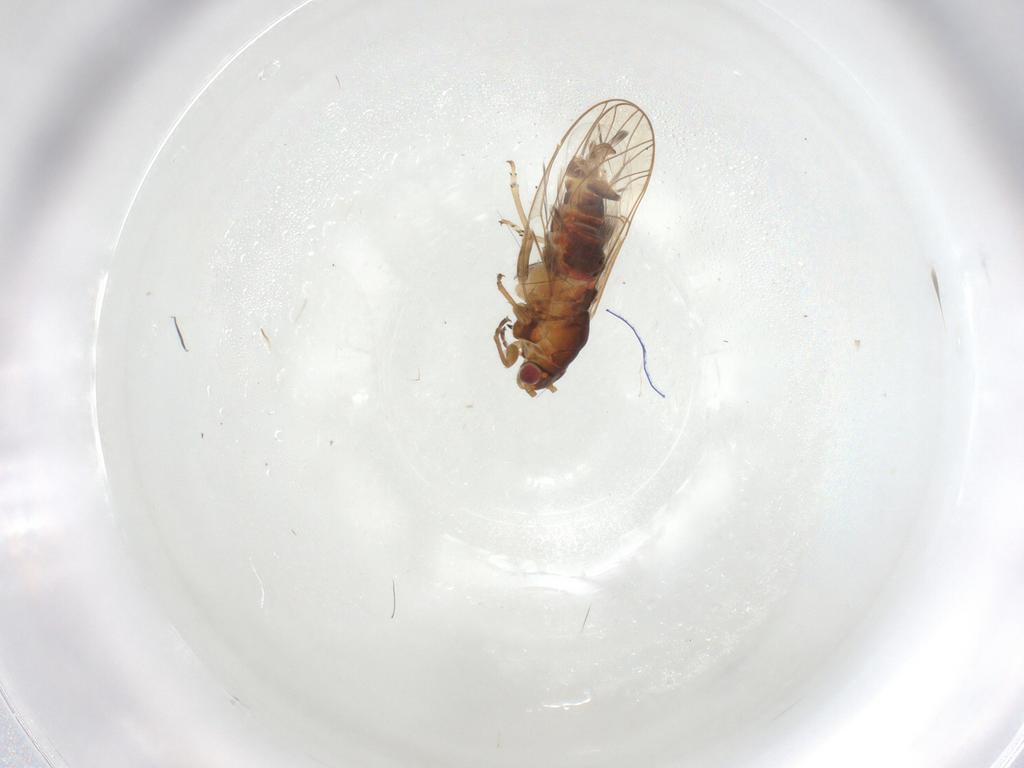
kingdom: Animalia
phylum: Arthropoda
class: Insecta
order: Hemiptera
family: Psyllidae
